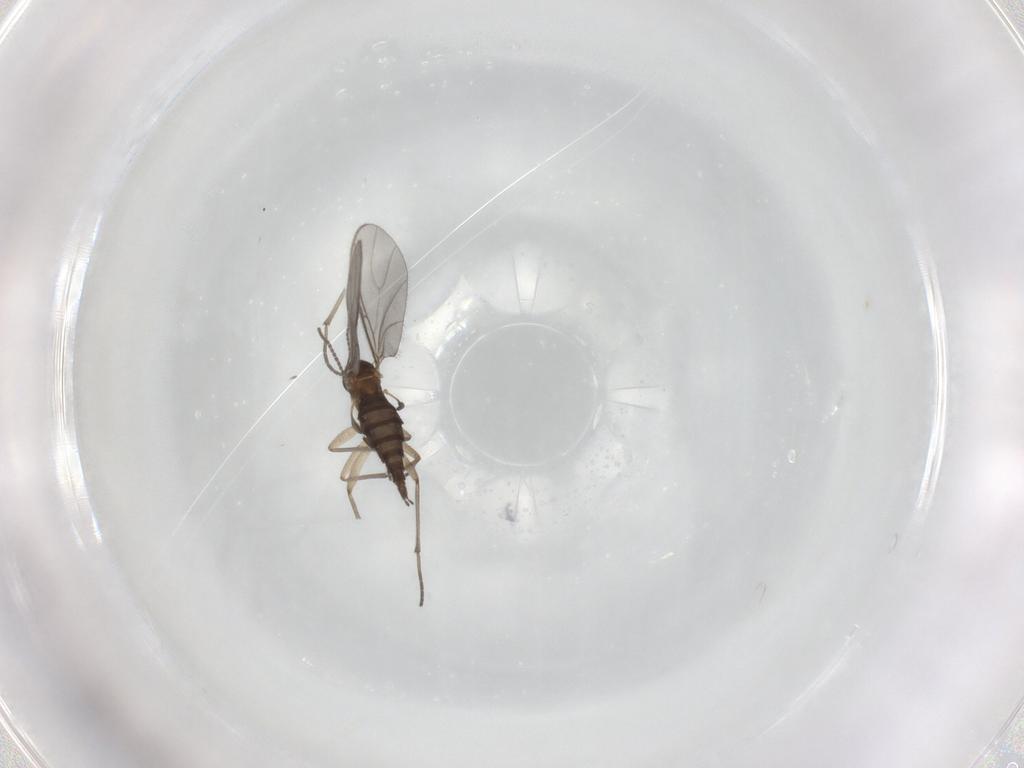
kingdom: Animalia
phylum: Arthropoda
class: Insecta
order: Diptera
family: Sciaridae
